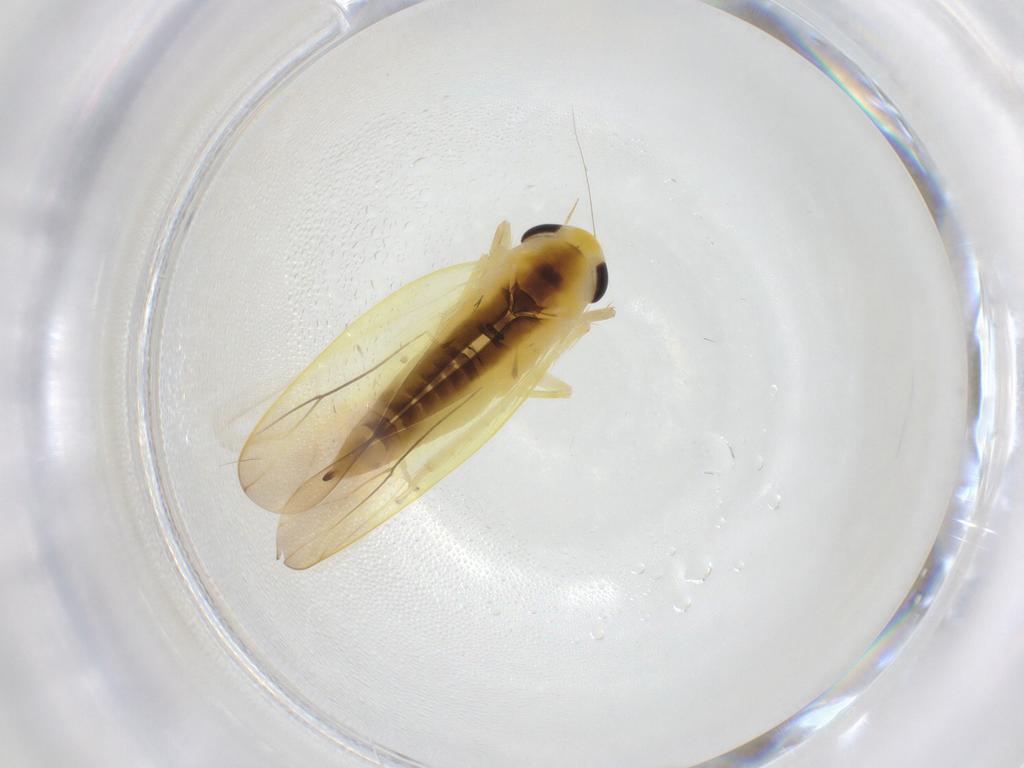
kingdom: Animalia
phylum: Arthropoda
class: Insecta
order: Hemiptera
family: Cicadellidae
